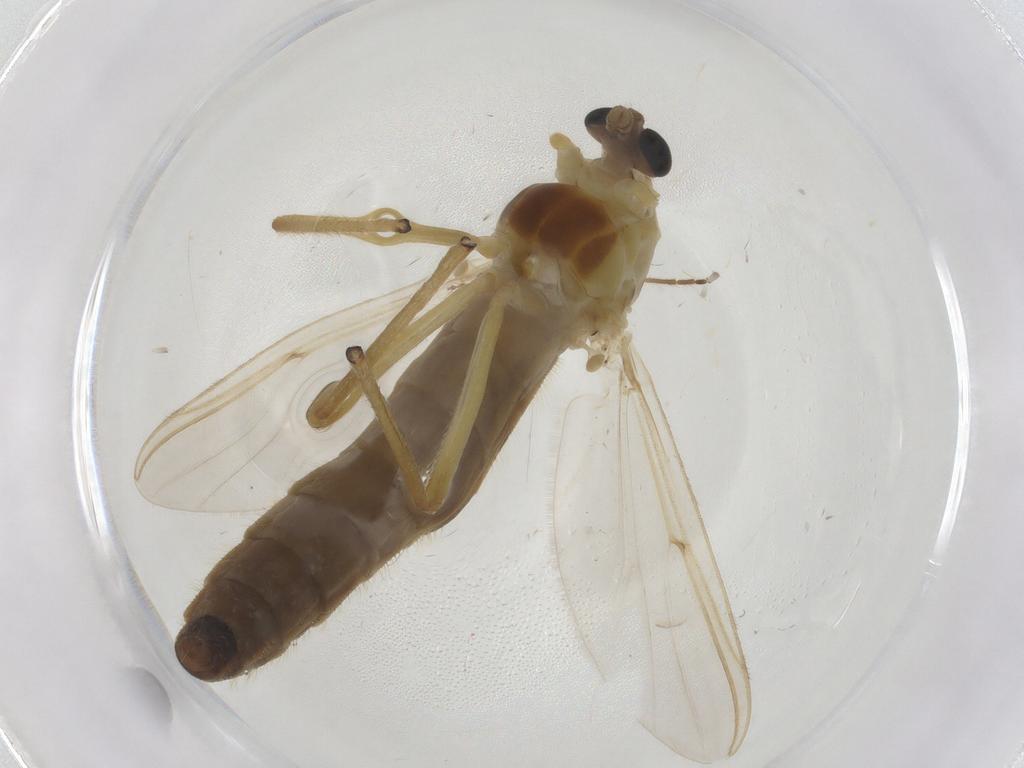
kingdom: Animalia
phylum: Arthropoda
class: Insecta
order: Diptera
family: Chironomidae
